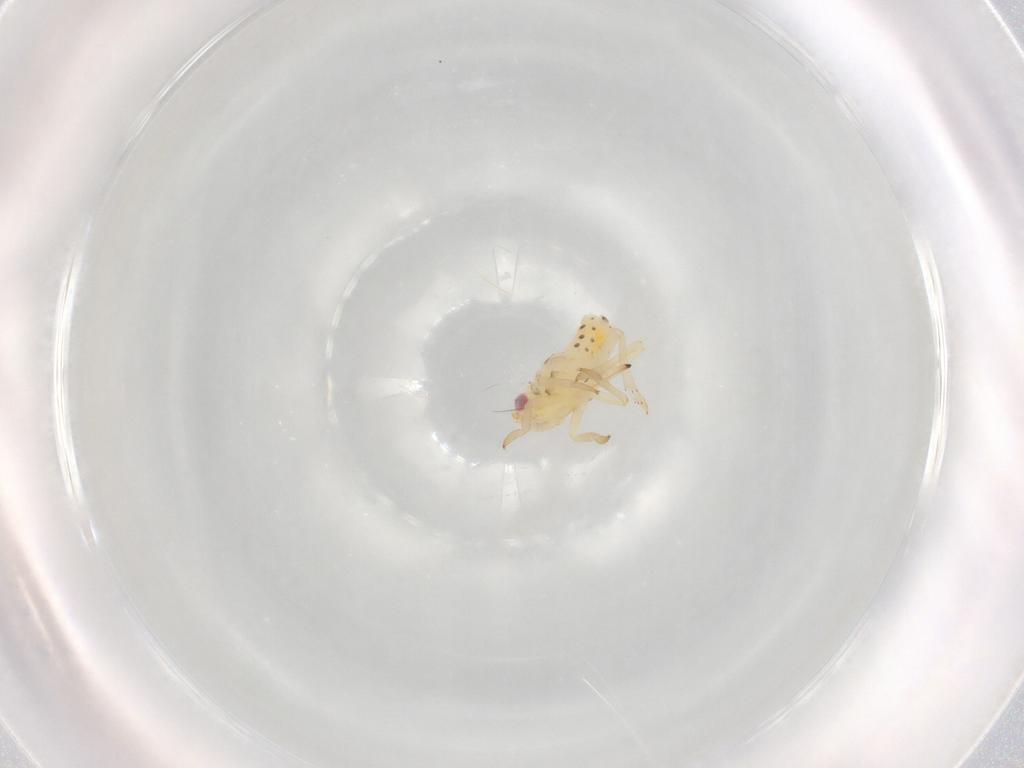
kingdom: Animalia
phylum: Arthropoda
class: Insecta
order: Hemiptera
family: Tropiduchidae
